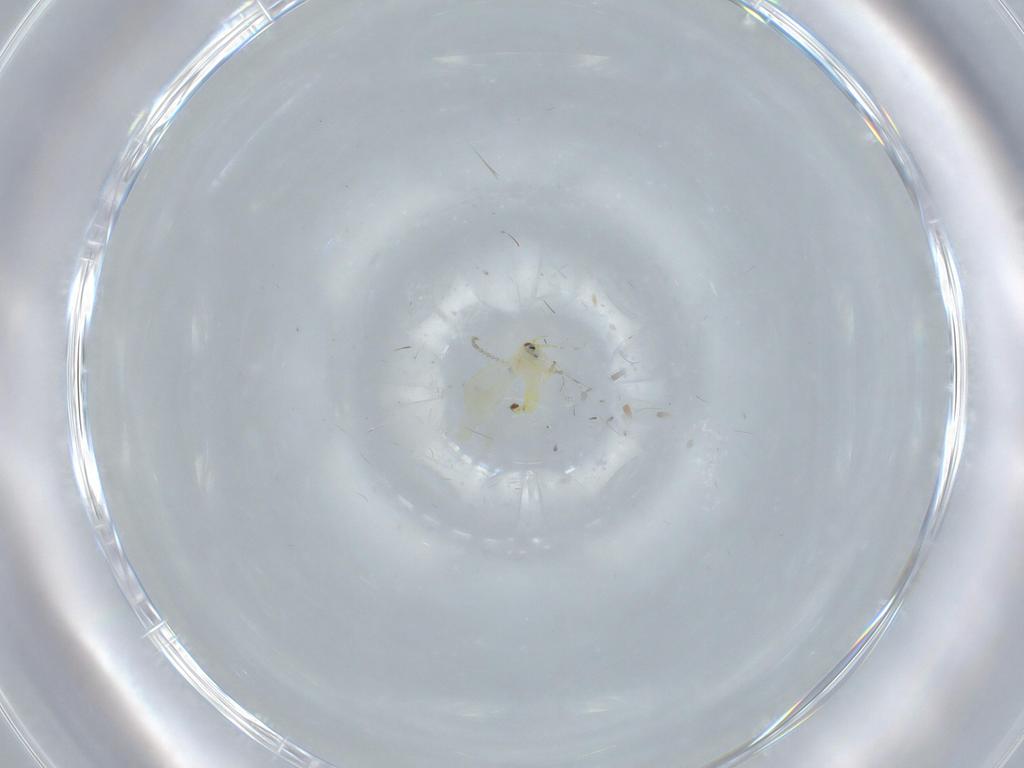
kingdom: Animalia
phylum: Arthropoda
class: Insecta
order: Diptera
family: Cecidomyiidae
